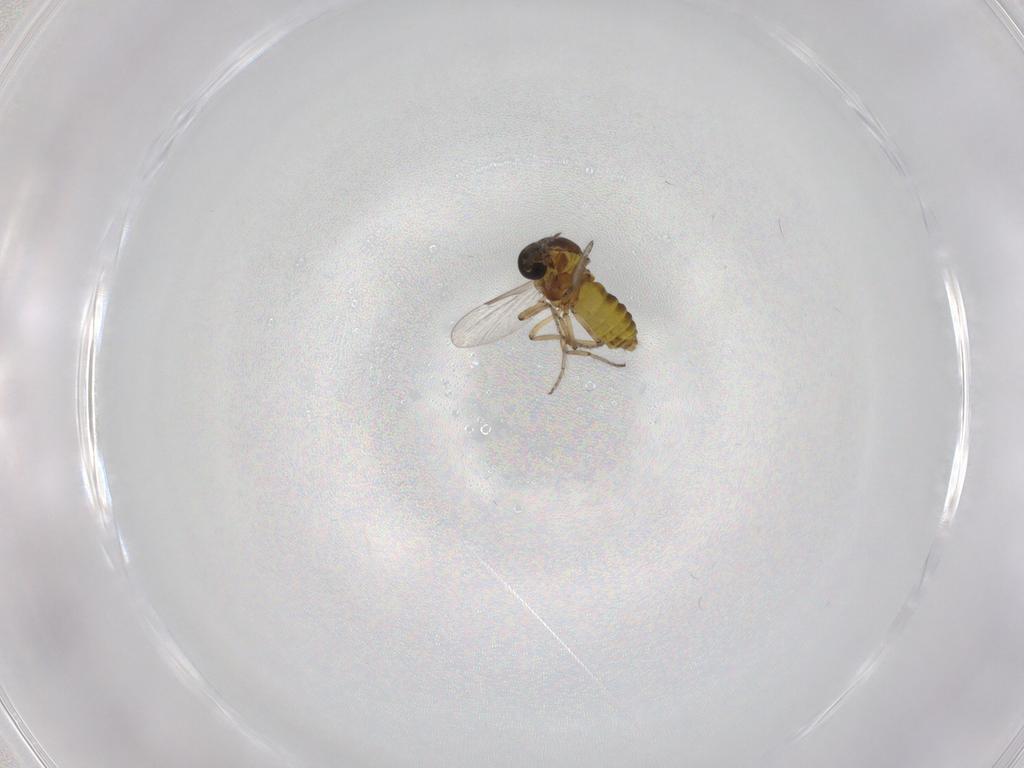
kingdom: Animalia
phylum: Arthropoda
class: Insecta
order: Diptera
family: Ceratopogonidae
